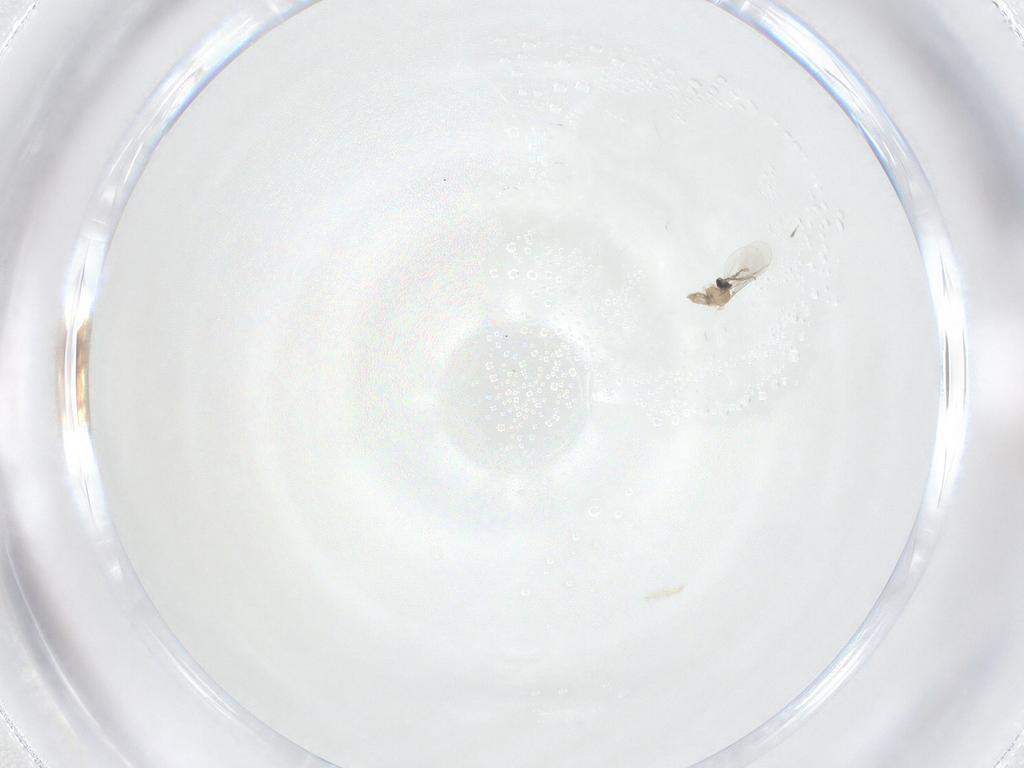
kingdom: Animalia
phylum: Arthropoda
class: Insecta
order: Diptera
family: Cecidomyiidae
